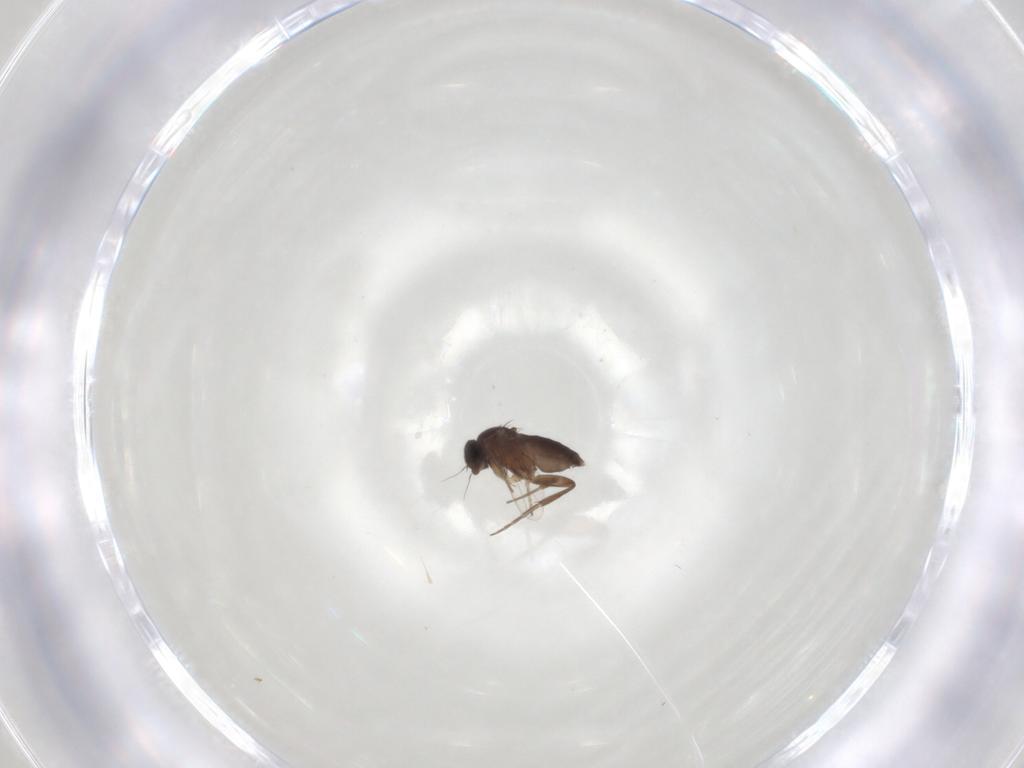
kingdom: Animalia
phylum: Arthropoda
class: Insecta
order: Diptera
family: Phoridae
